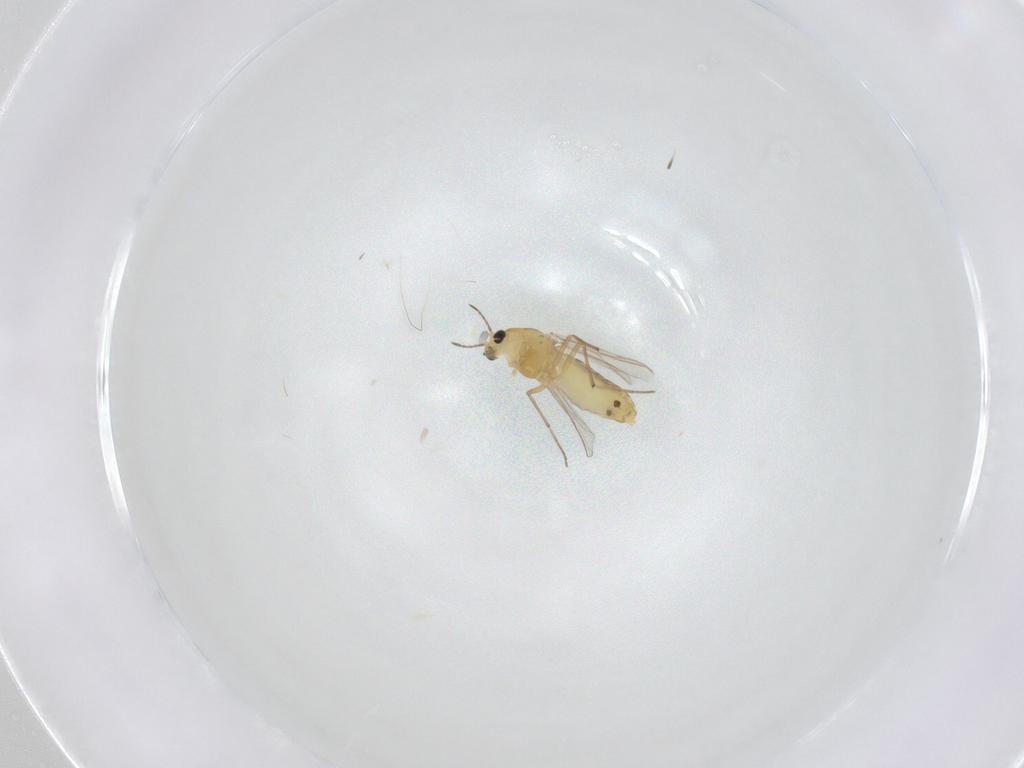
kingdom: Animalia
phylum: Arthropoda
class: Insecta
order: Diptera
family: Chironomidae
